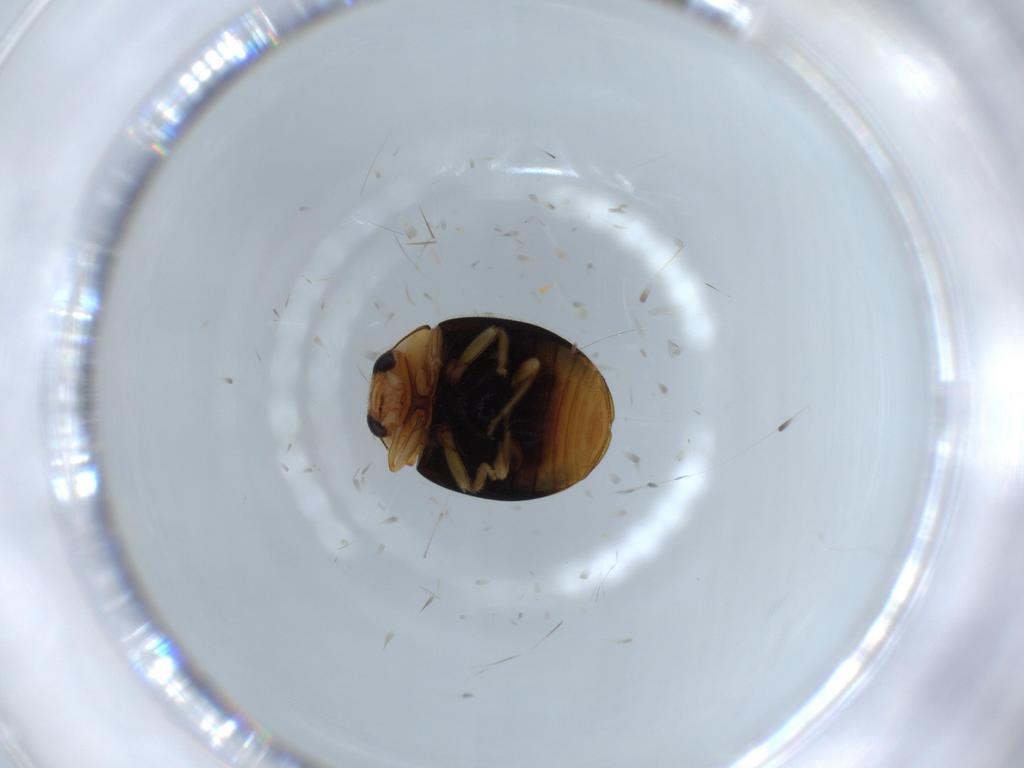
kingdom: Animalia
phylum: Arthropoda
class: Insecta
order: Coleoptera
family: Coccinellidae
